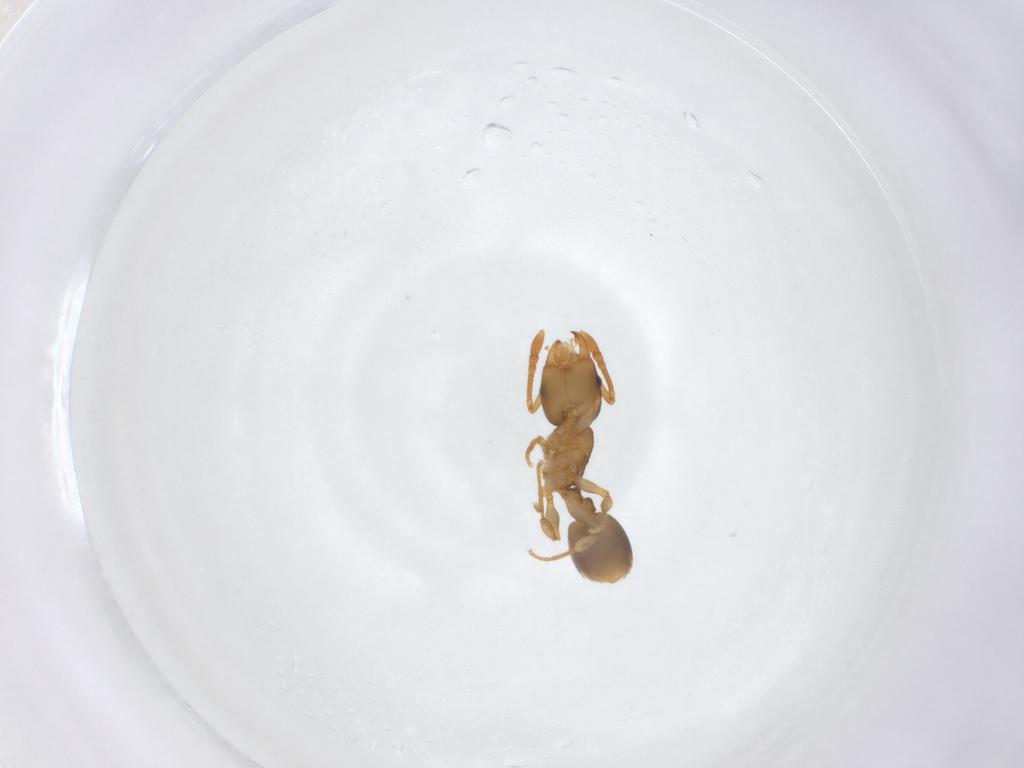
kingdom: Animalia
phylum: Arthropoda
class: Insecta
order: Hymenoptera
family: Formicidae
